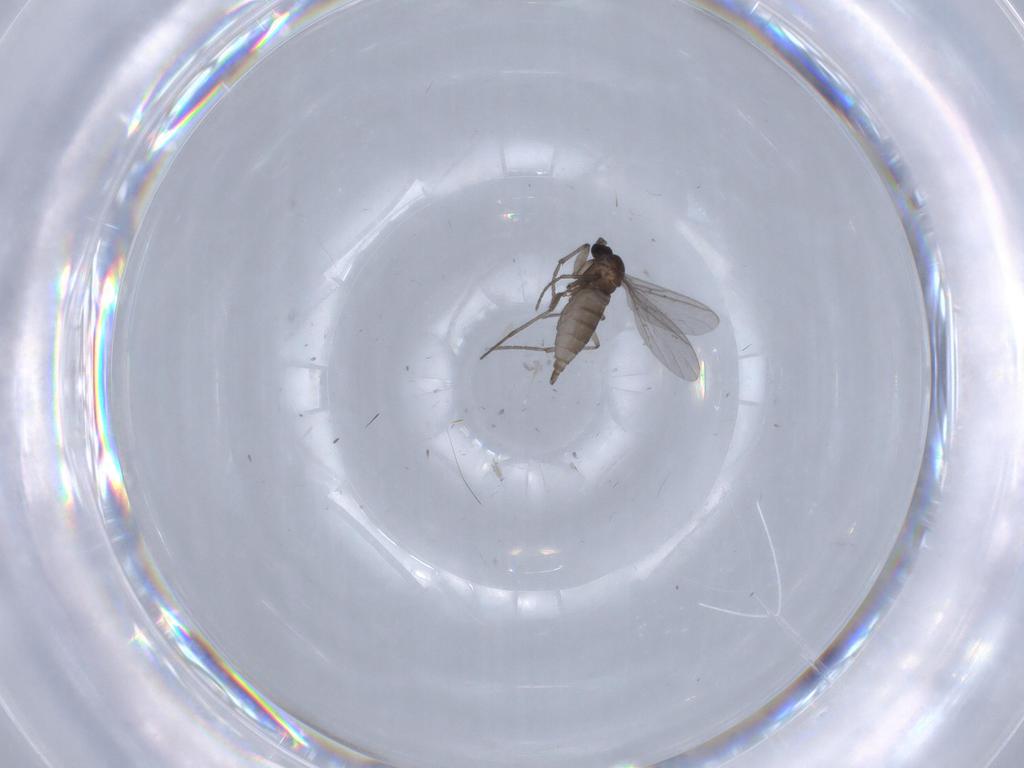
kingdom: Animalia
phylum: Arthropoda
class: Insecta
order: Diptera
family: Sciaridae
